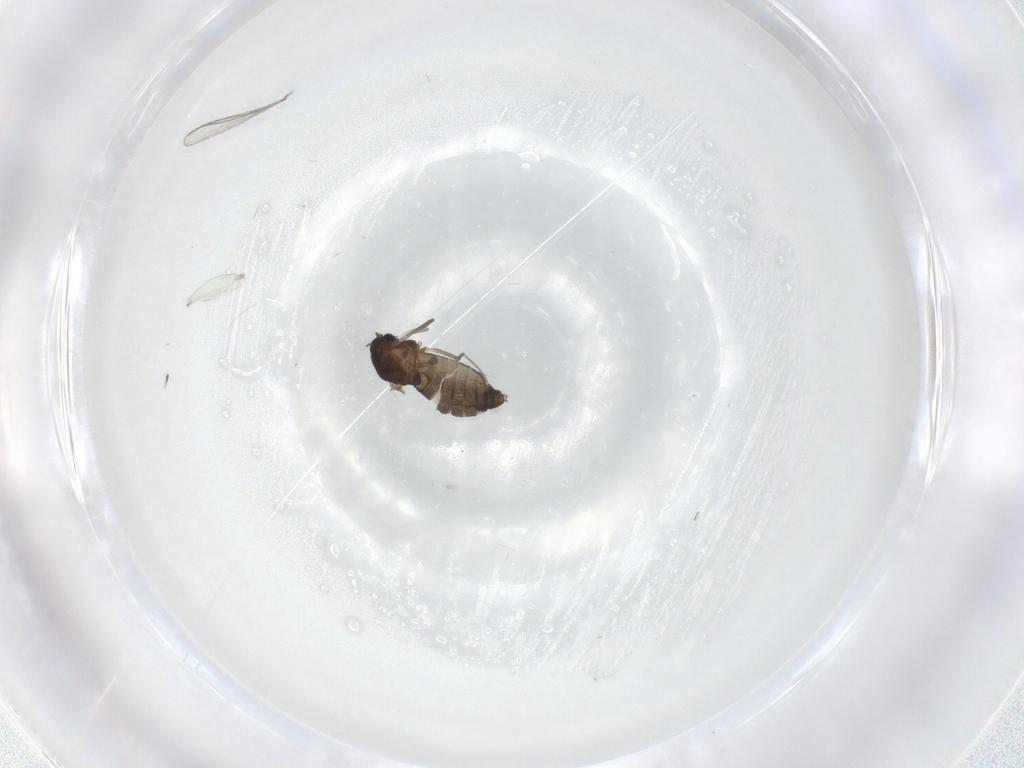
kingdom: Animalia
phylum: Arthropoda
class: Insecta
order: Diptera
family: Chironomidae
